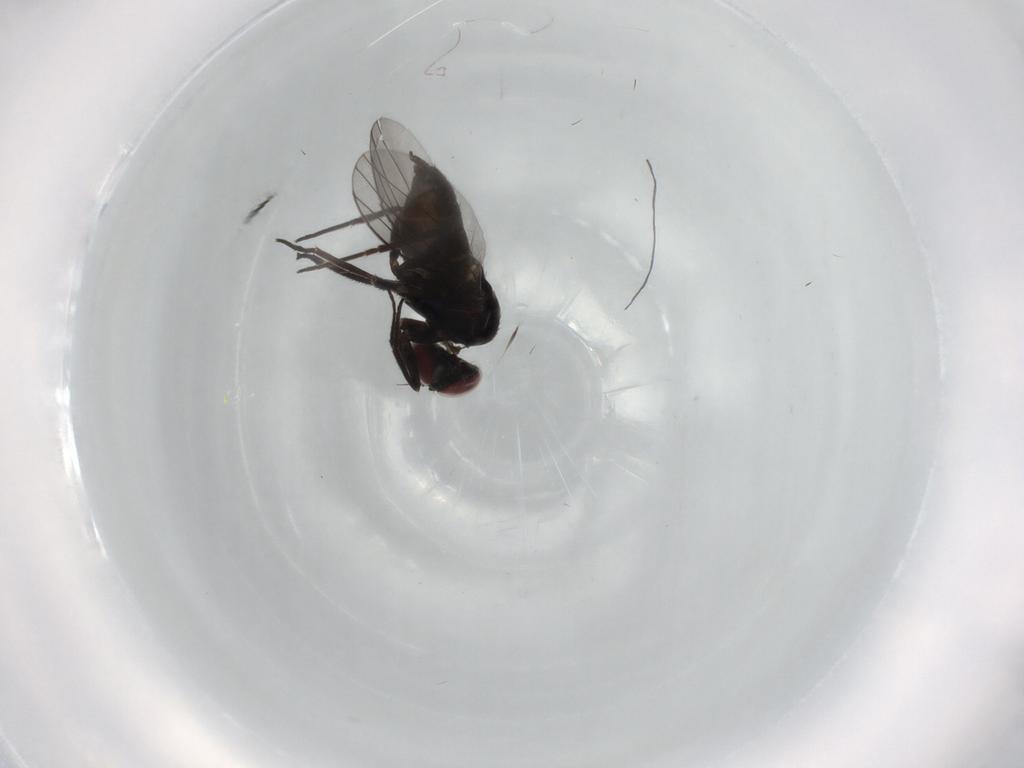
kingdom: Animalia
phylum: Arthropoda
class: Insecta
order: Diptera
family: Dolichopodidae
